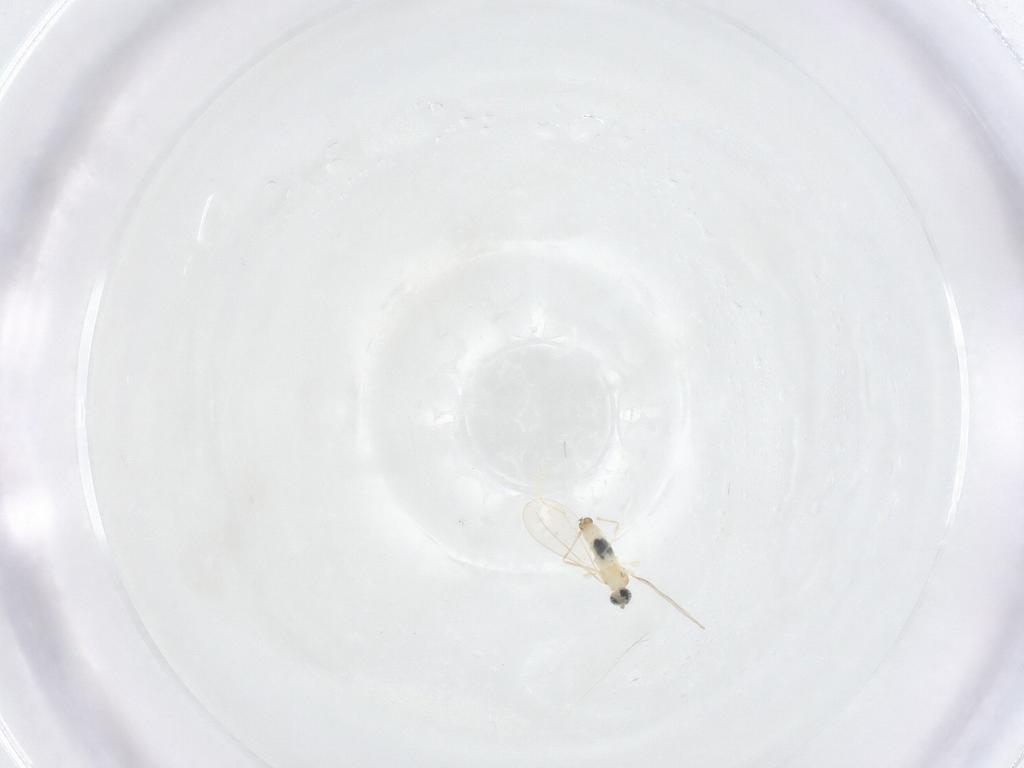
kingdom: Animalia
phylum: Arthropoda
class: Insecta
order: Diptera
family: Cecidomyiidae
